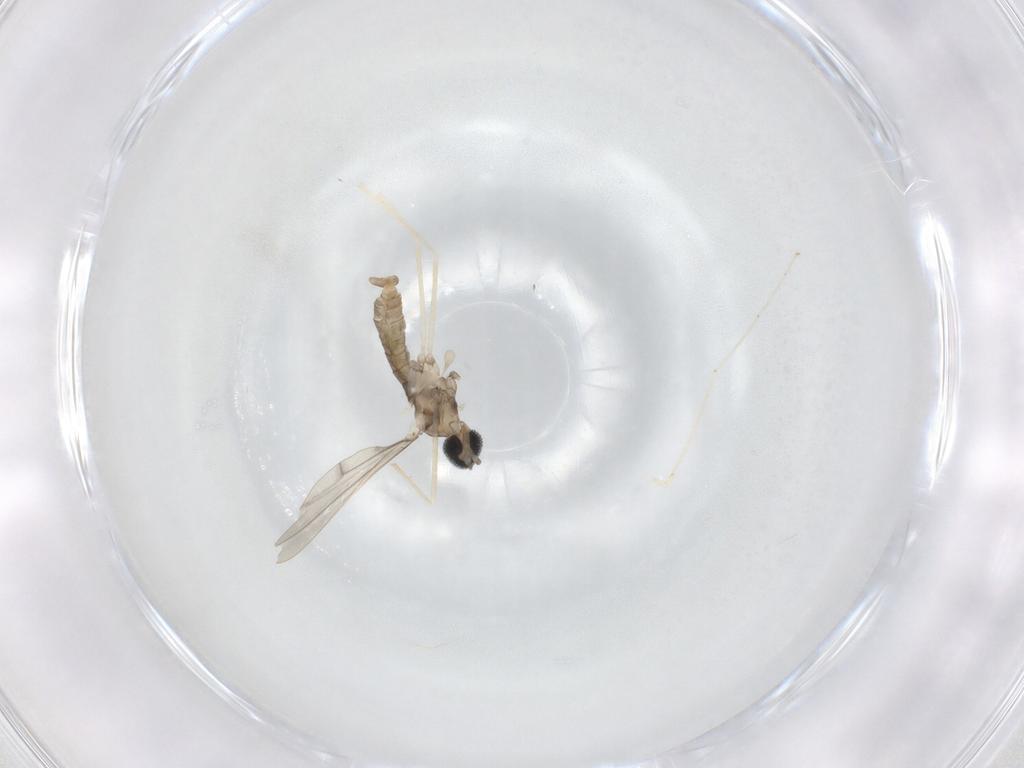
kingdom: Animalia
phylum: Arthropoda
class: Insecta
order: Diptera
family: Cecidomyiidae
